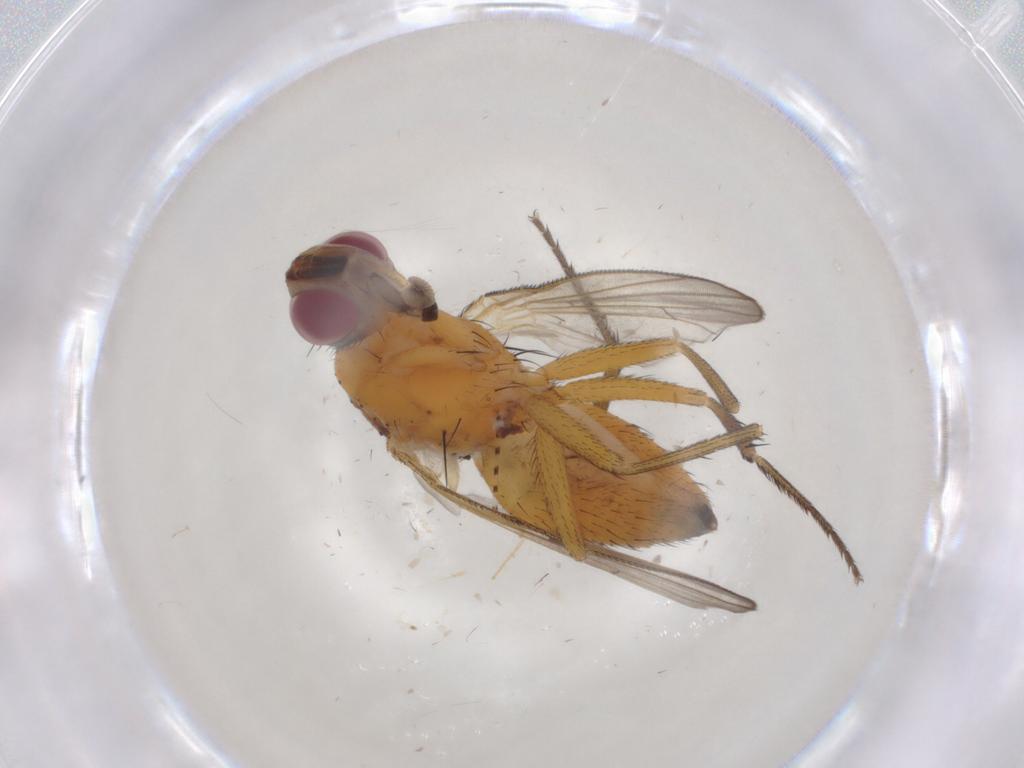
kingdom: Animalia
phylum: Arthropoda
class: Insecta
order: Diptera
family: Muscidae
